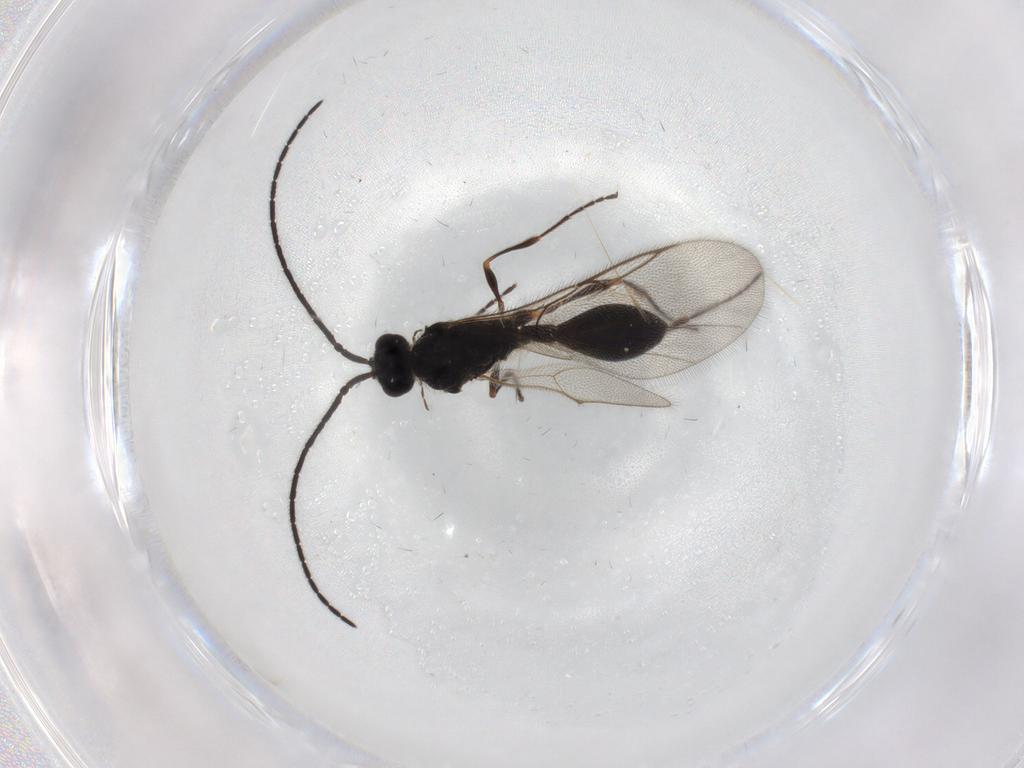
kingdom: Animalia
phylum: Arthropoda
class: Insecta
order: Hymenoptera
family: Diapriidae
